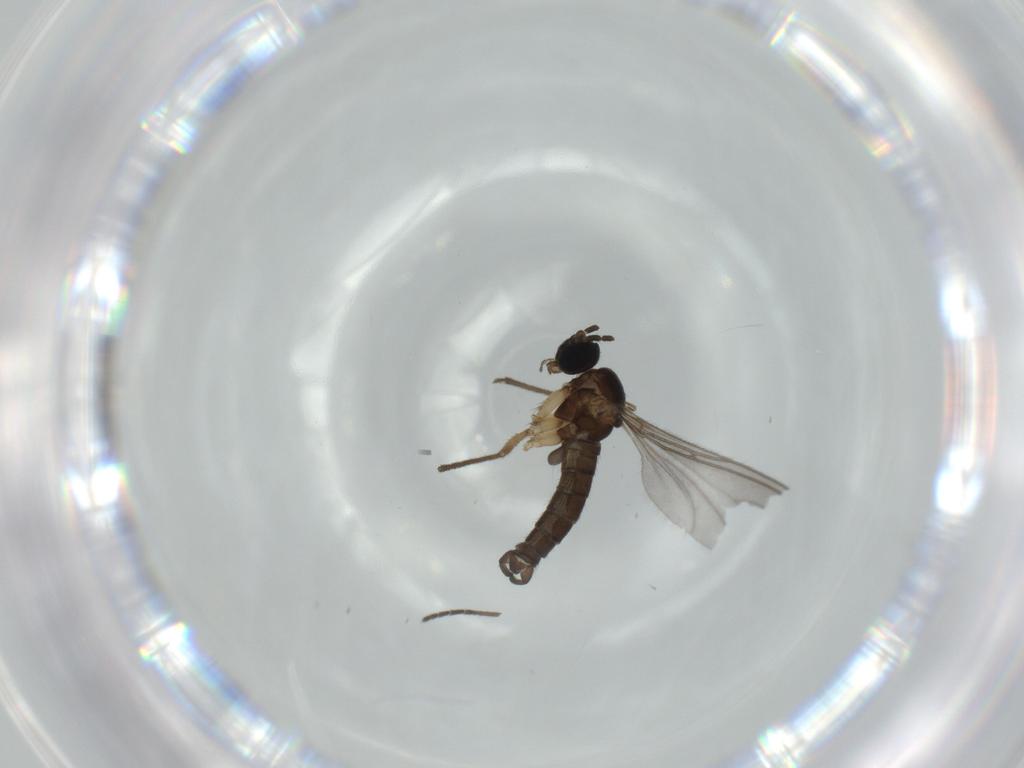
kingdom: Animalia
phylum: Arthropoda
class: Insecta
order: Diptera
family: Sciaridae
